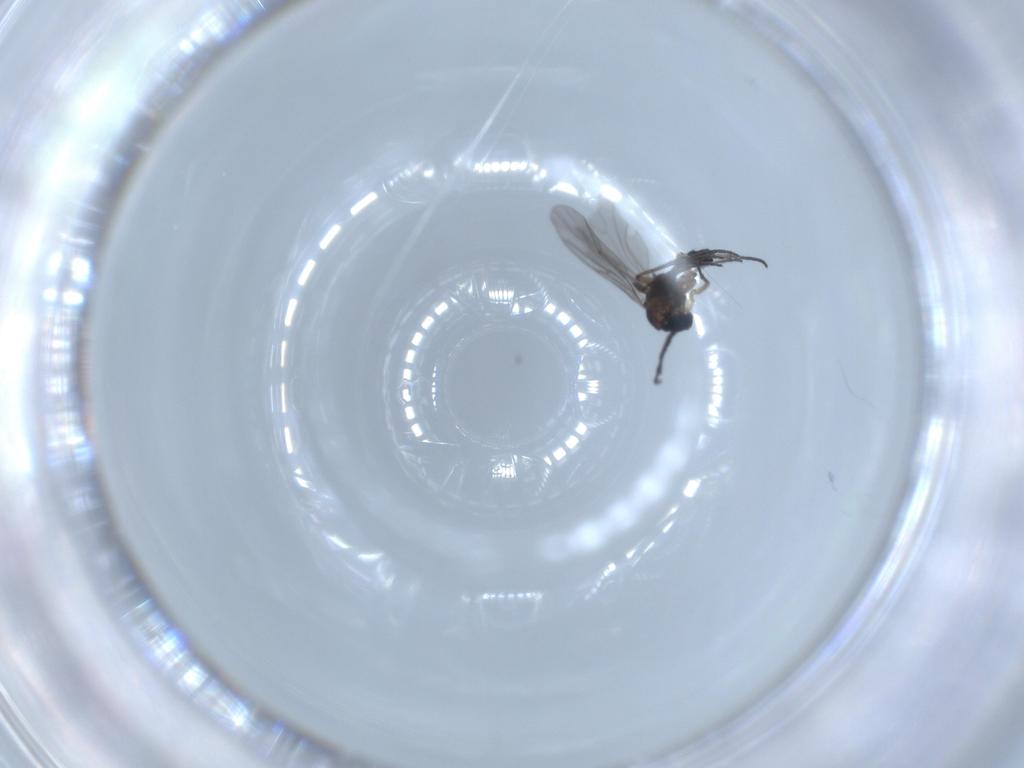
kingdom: Animalia
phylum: Arthropoda
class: Insecta
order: Diptera
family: Sciaridae
